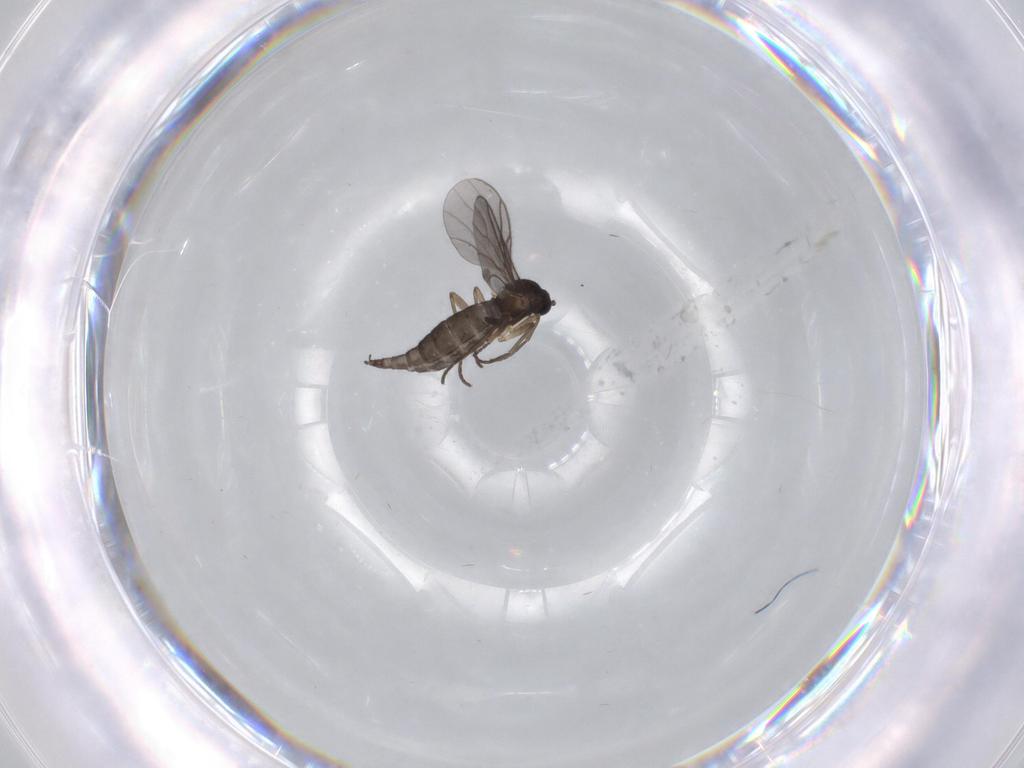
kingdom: Animalia
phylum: Arthropoda
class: Insecta
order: Diptera
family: Sciaridae
